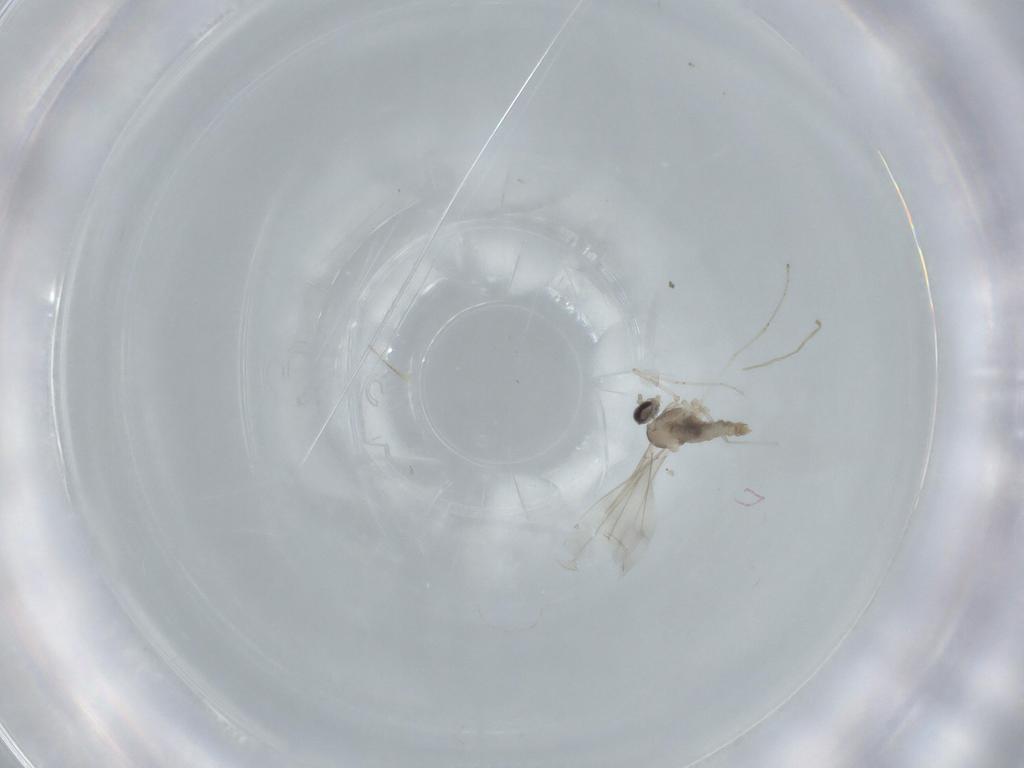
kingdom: Animalia
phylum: Arthropoda
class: Insecta
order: Diptera
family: Cecidomyiidae
